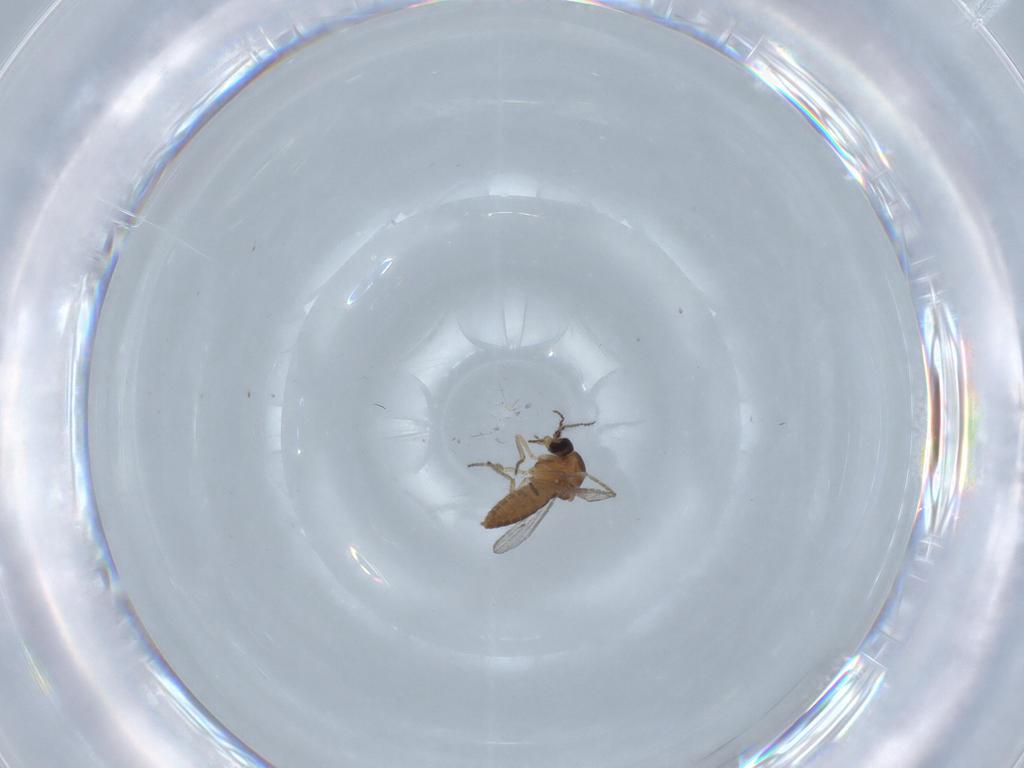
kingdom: Animalia
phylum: Arthropoda
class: Insecta
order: Diptera
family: Ceratopogonidae
